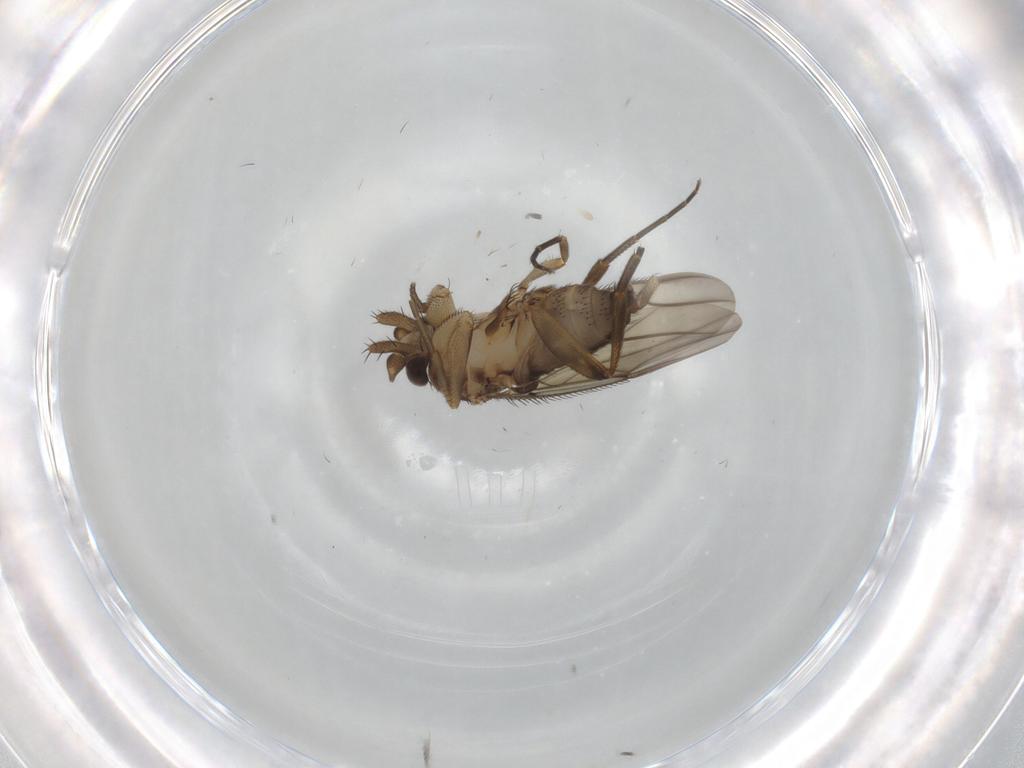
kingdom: Animalia
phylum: Arthropoda
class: Insecta
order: Diptera
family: Phoridae
